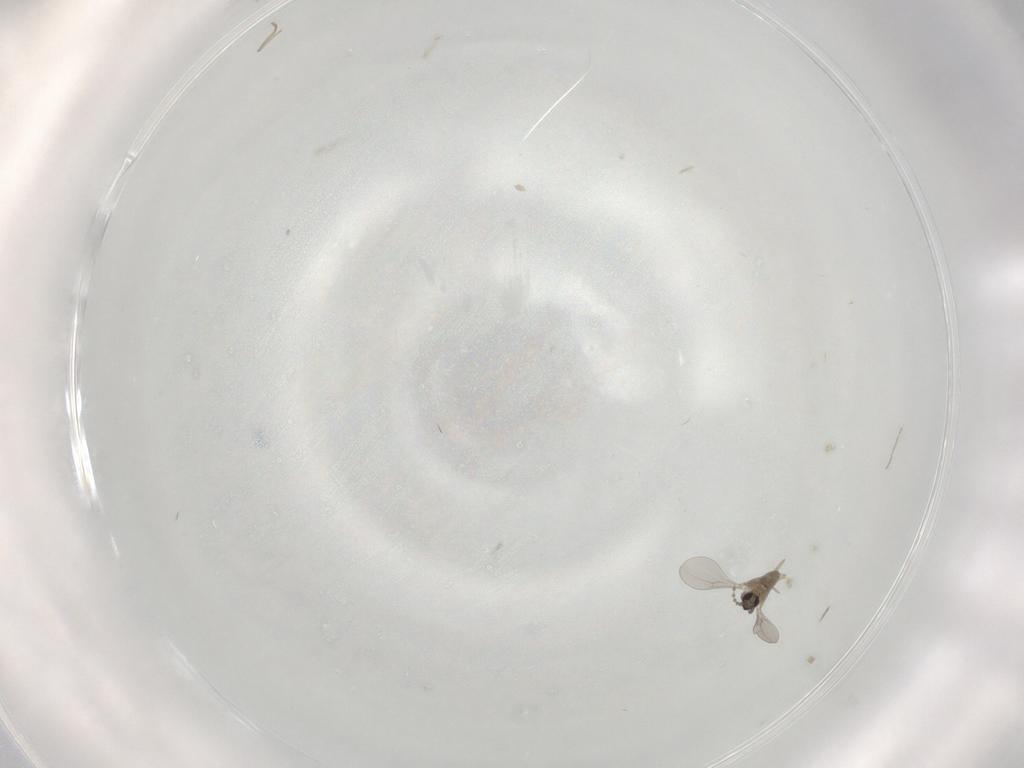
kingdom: Animalia
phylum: Arthropoda
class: Insecta
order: Diptera
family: Cecidomyiidae
